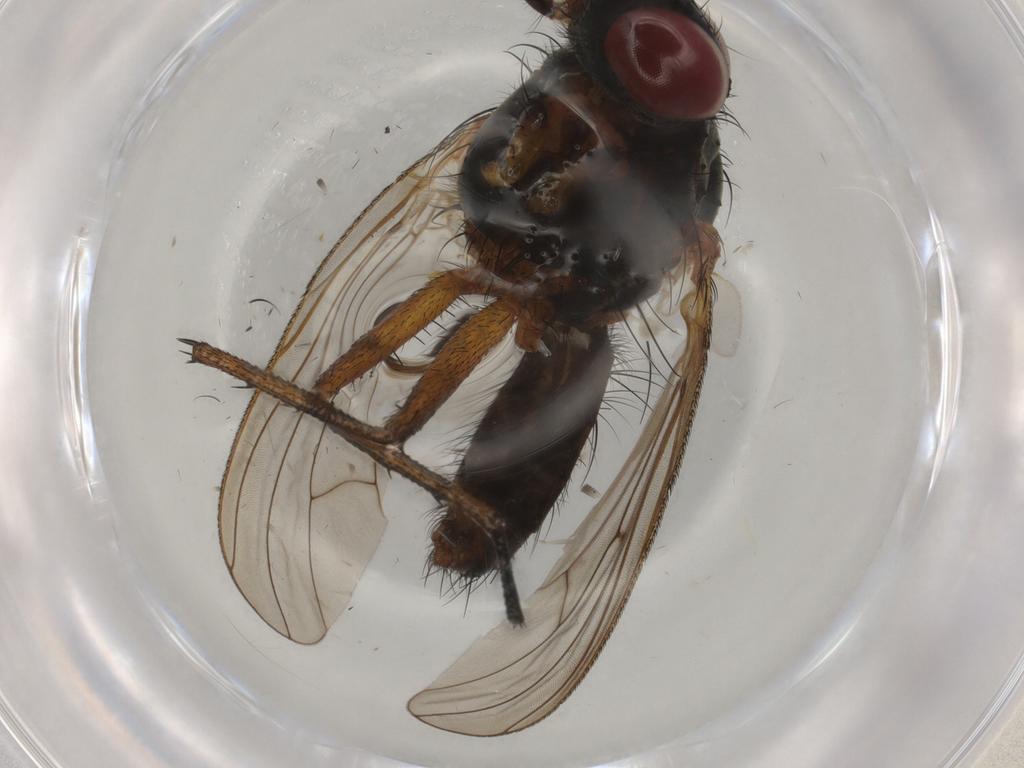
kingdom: Animalia
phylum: Arthropoda
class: Insecta
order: Diptera
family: Anthomyiidae
